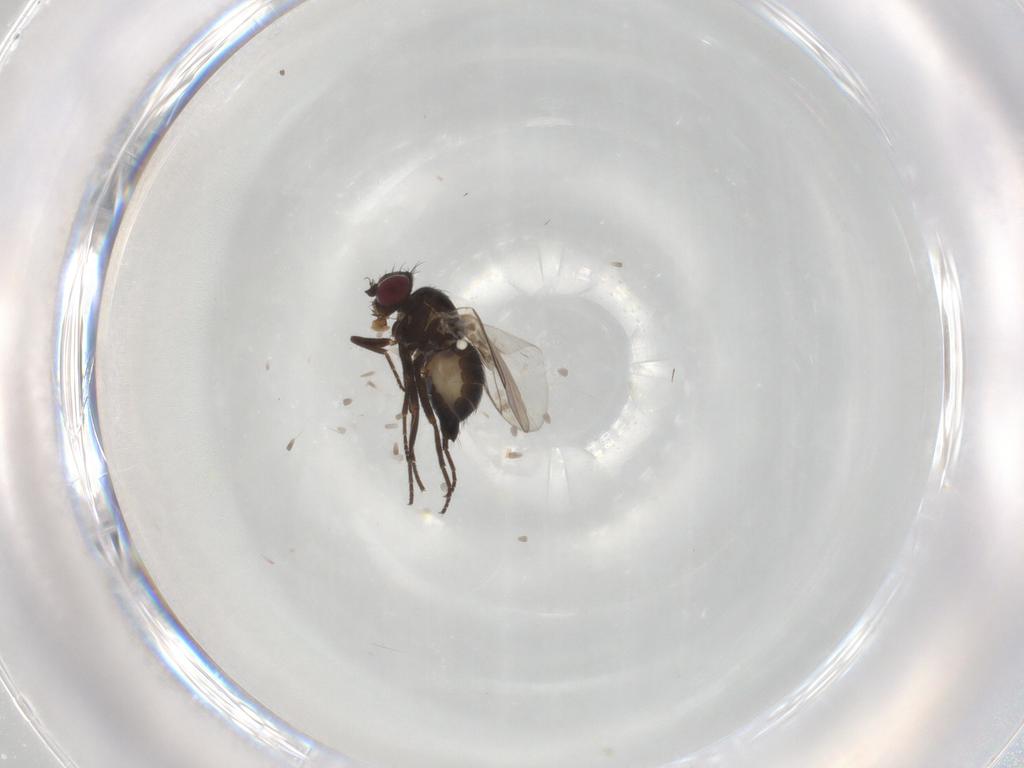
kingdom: Animalia
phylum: Arthropoda
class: Insecta
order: Diptera
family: Agromyzidae
